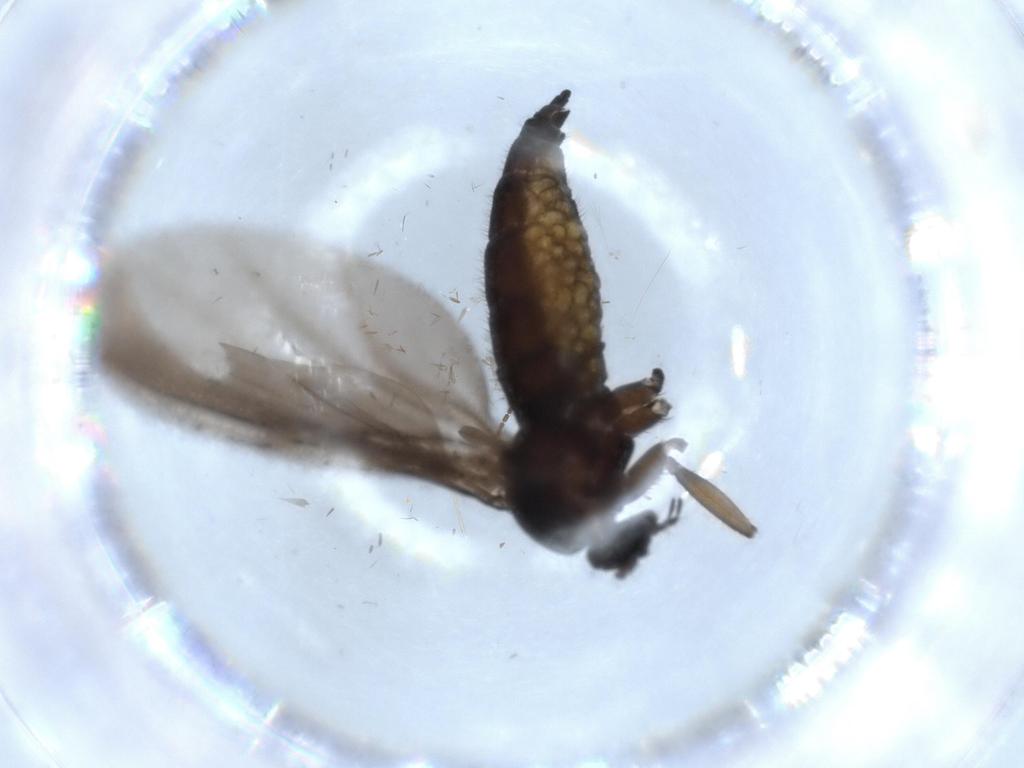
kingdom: Animalia
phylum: Arthropoda
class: Insecta
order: Diptera
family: Sciaridae
